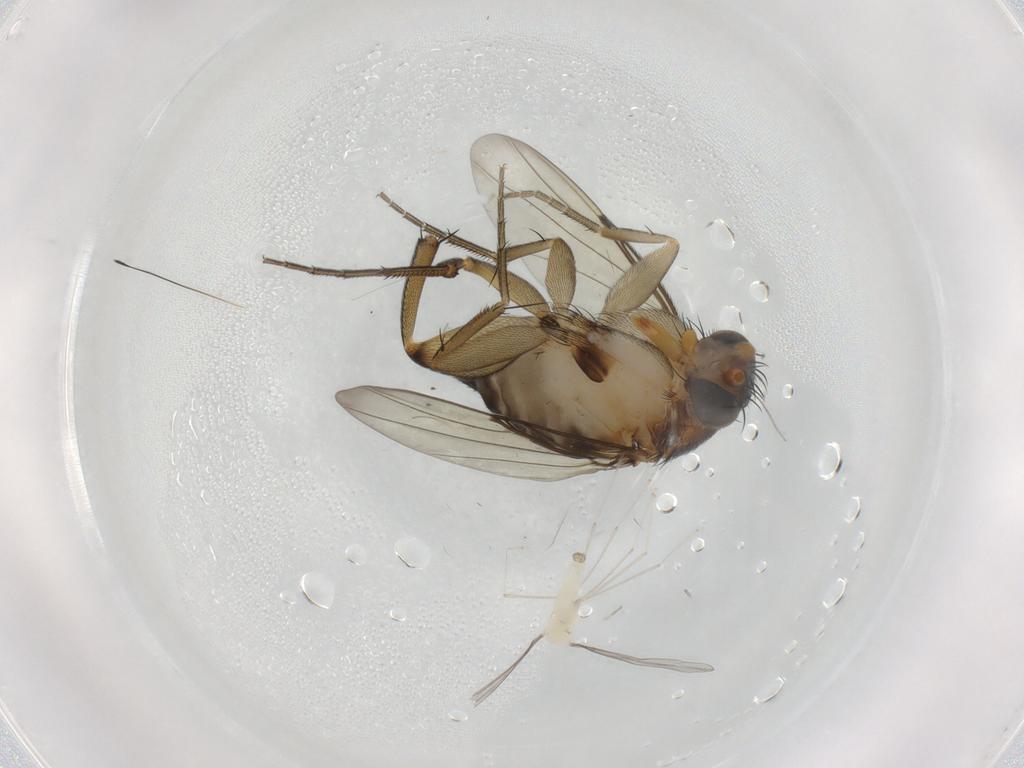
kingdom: Animalia
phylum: Arthropoda
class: Insecta
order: Diptera
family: Cecidomyiidae
